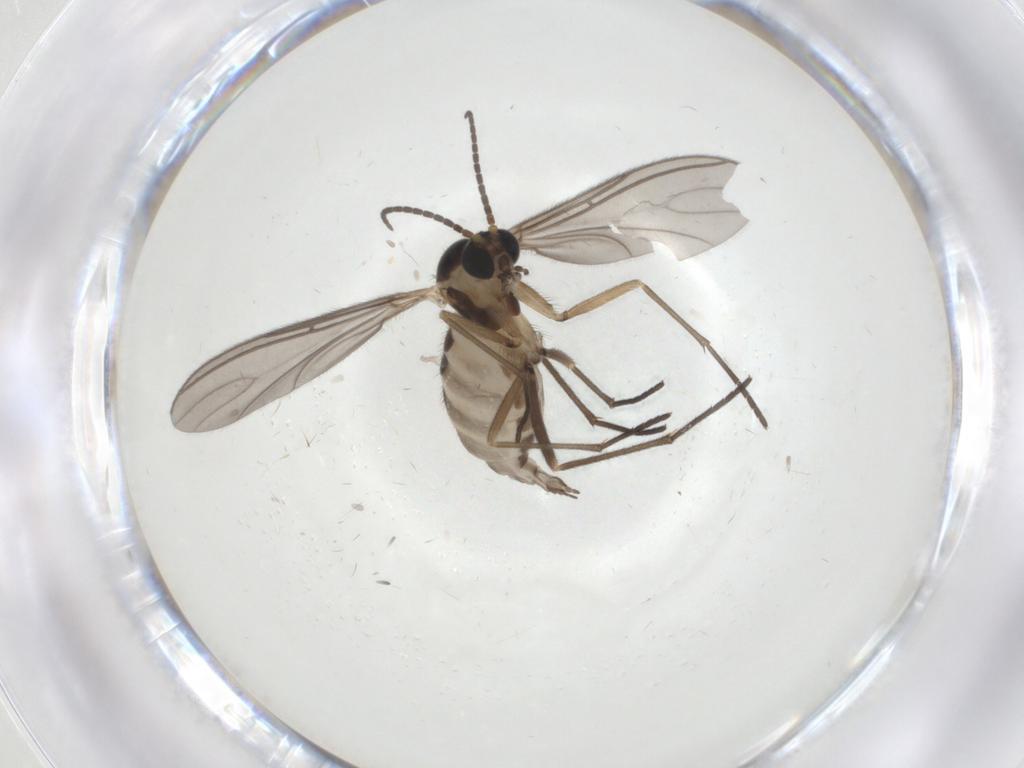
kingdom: Animalia
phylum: Arthropoda
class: Insecta
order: Diptera
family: Sciaridae
